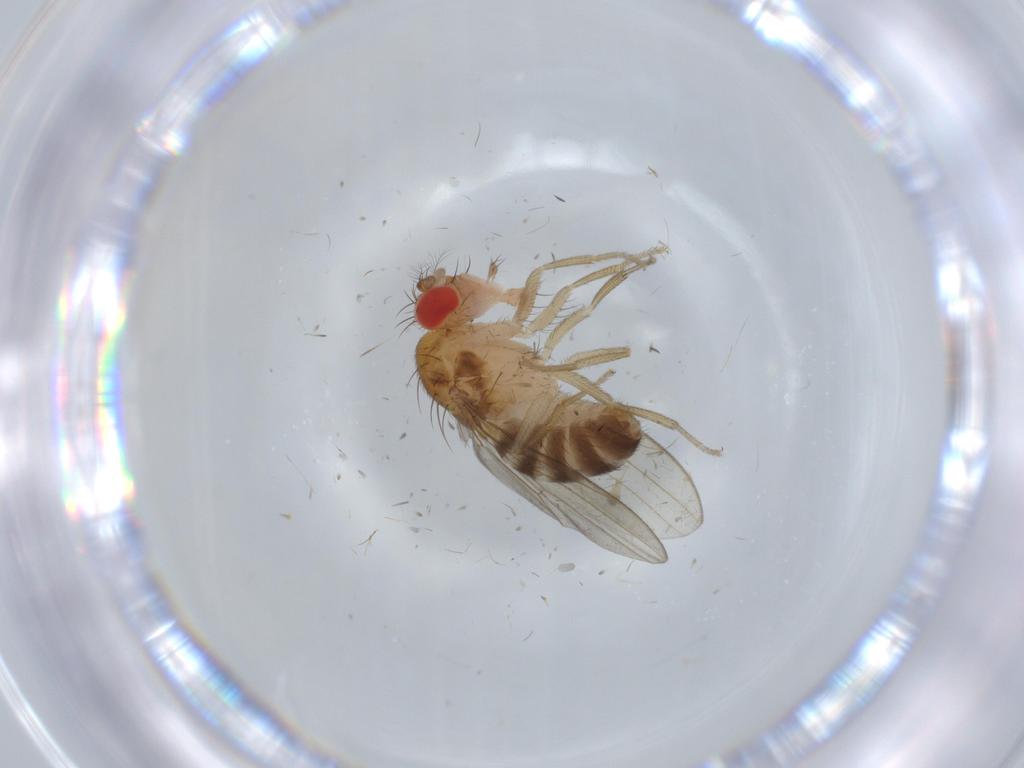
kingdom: Animalia
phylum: Arthropoda
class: Insecta
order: Diptera
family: Drosophilidae
